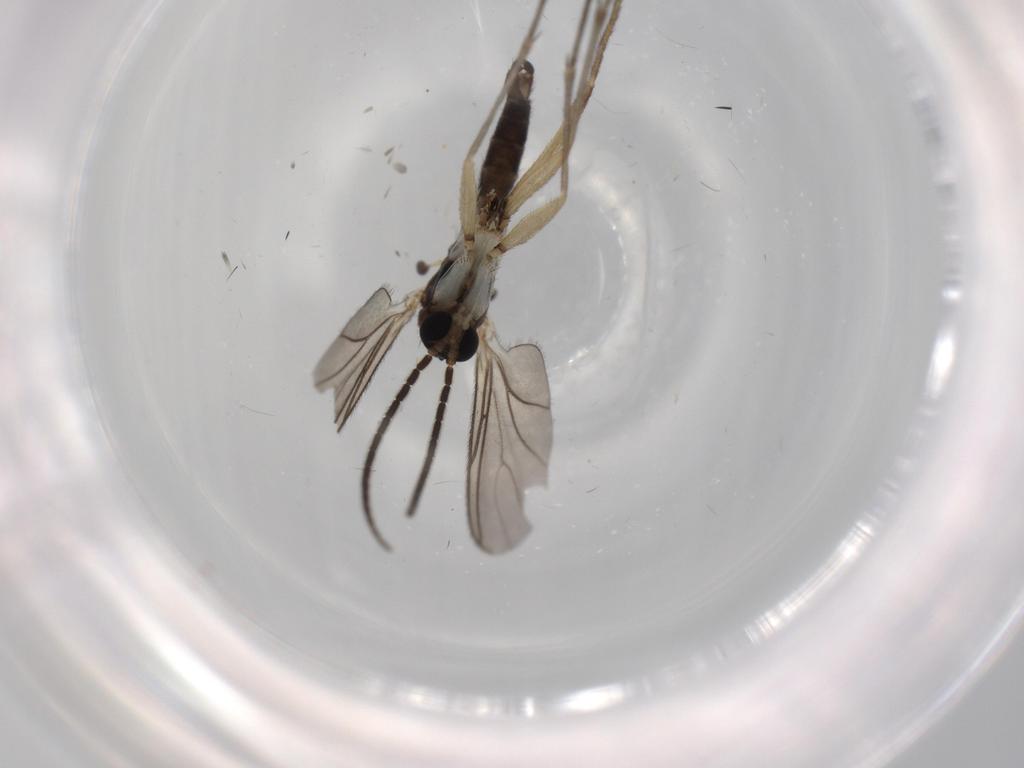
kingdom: Animalia
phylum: Arthropoda
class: Insecta
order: Diptera
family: Sciaridae
